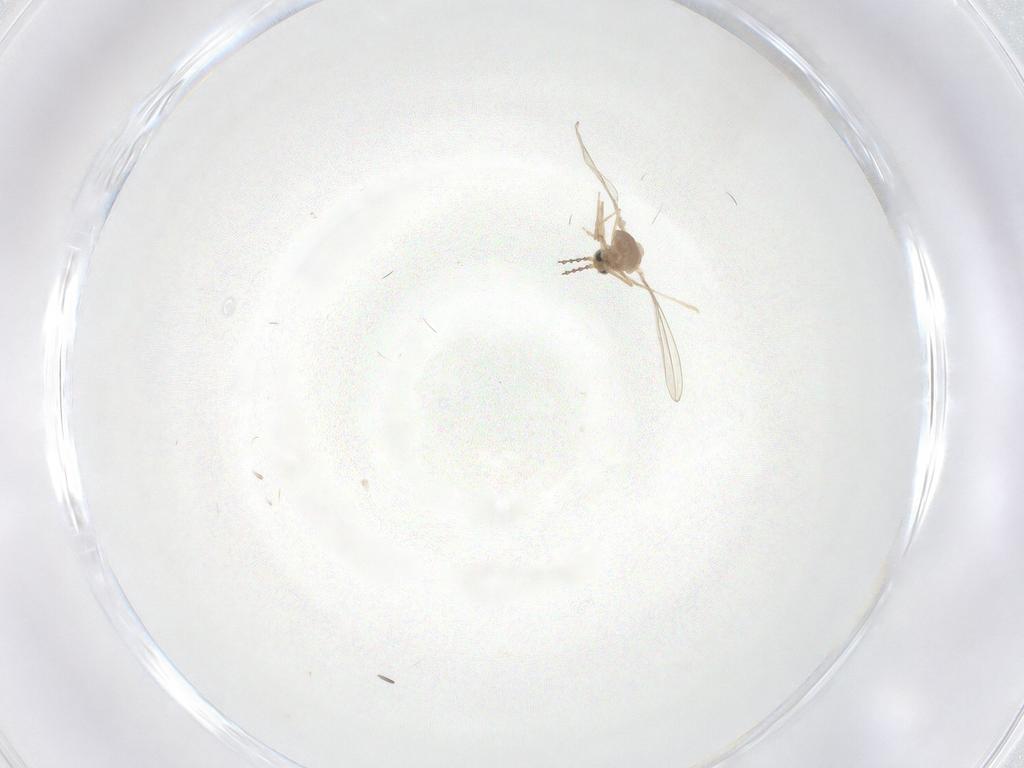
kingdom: Animalia
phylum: Arthropoda
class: Insecta
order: Diptera
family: Cecidomyiidae
